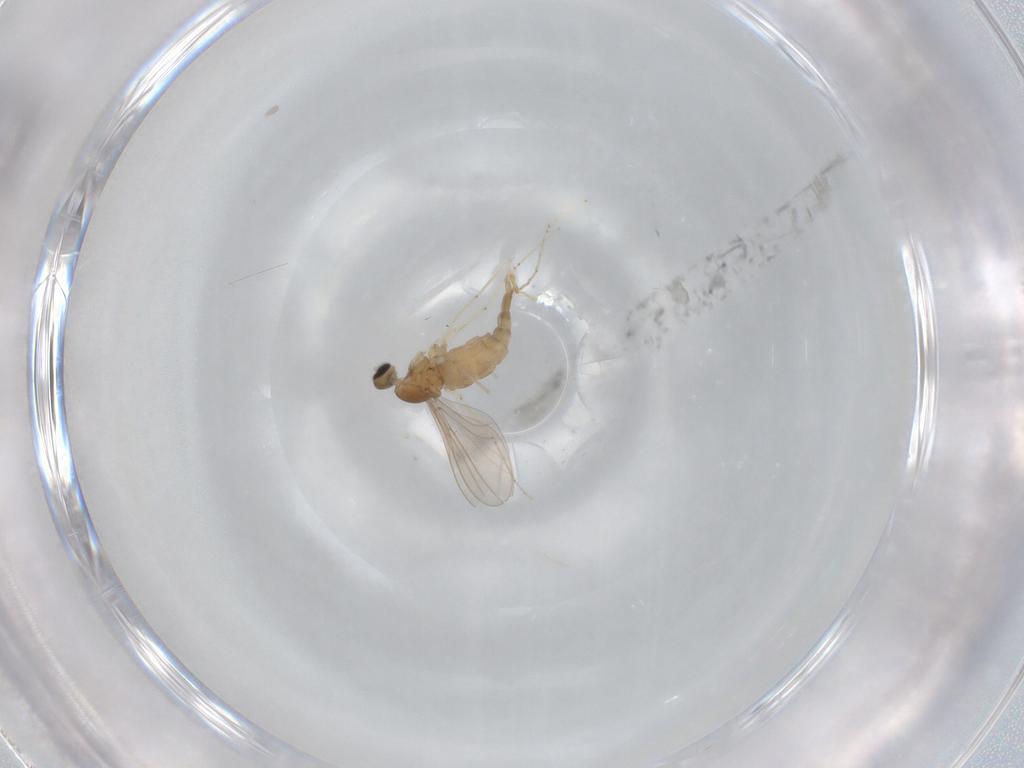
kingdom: Animalia
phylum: Arthropoda
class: Insecta
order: Diptera
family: Cecidomyiidae
